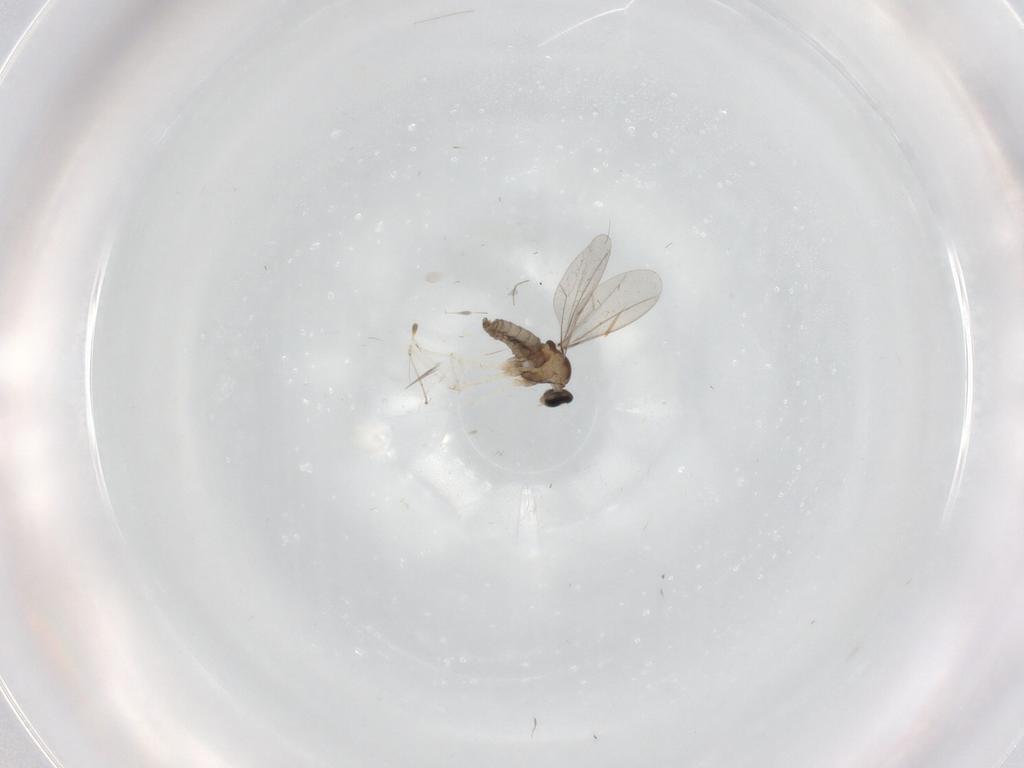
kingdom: Animalia
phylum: Arthropoda
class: Insecta
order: Diptera
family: Cecidomyiidae
